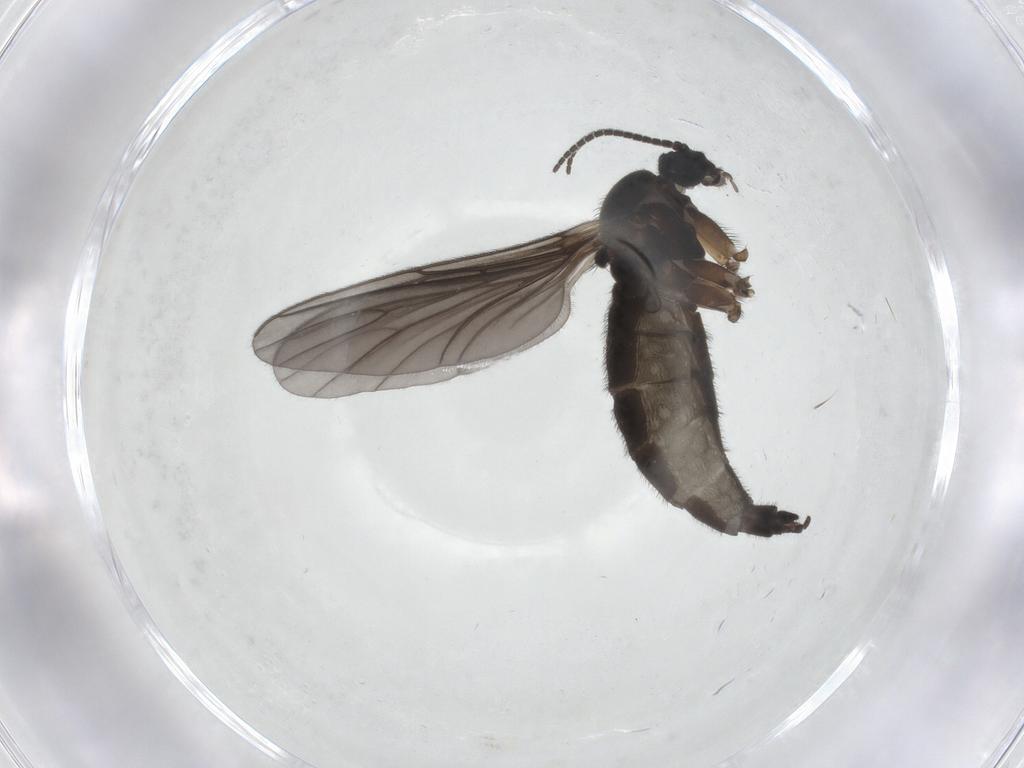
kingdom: Animalia
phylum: Arthropoda
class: Insecta
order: Diptera
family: Sciaridae
